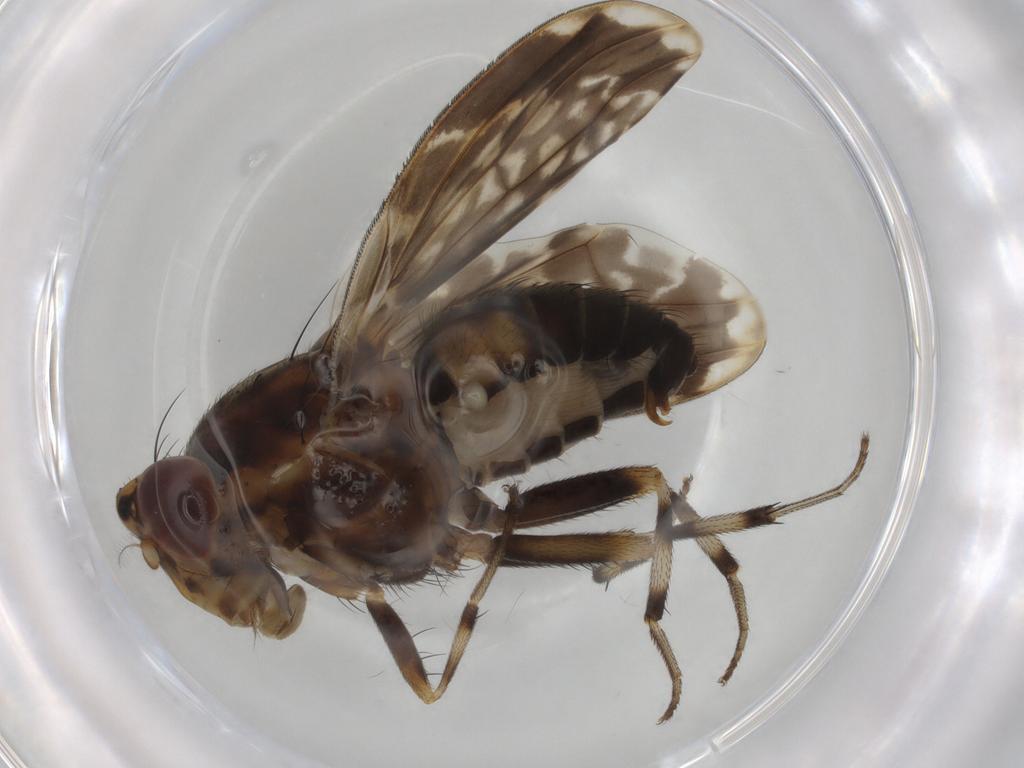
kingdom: Animalia
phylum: Arthropoda
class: Insecta
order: Diptera
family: Lauxaniidae
